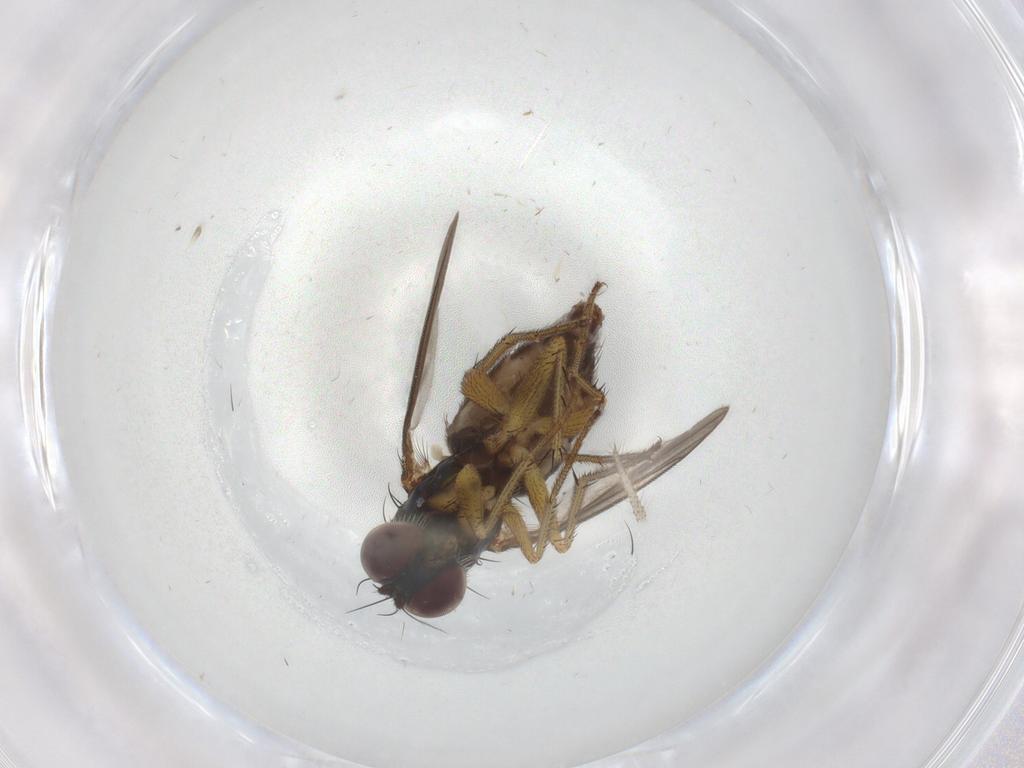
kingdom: Animalia
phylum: Arthropoda
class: Insecta
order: Diptera
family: Dolichopodidae
